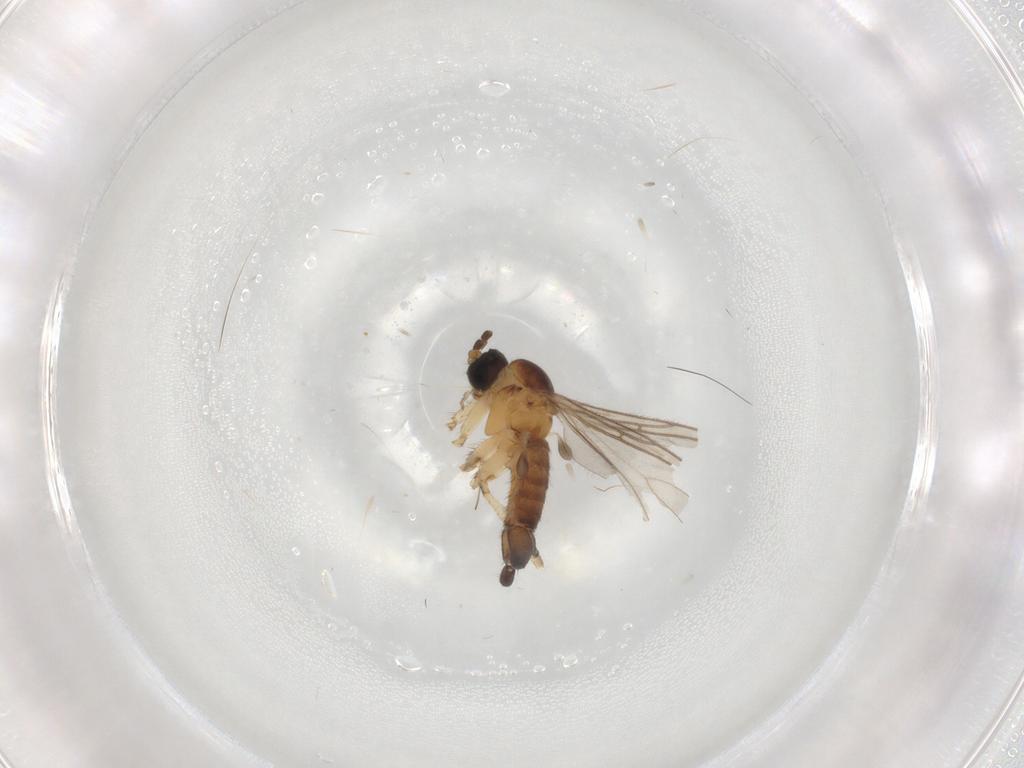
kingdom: Animalia
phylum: Arthropoda
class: Insecta
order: Diptera
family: Sciaridae
